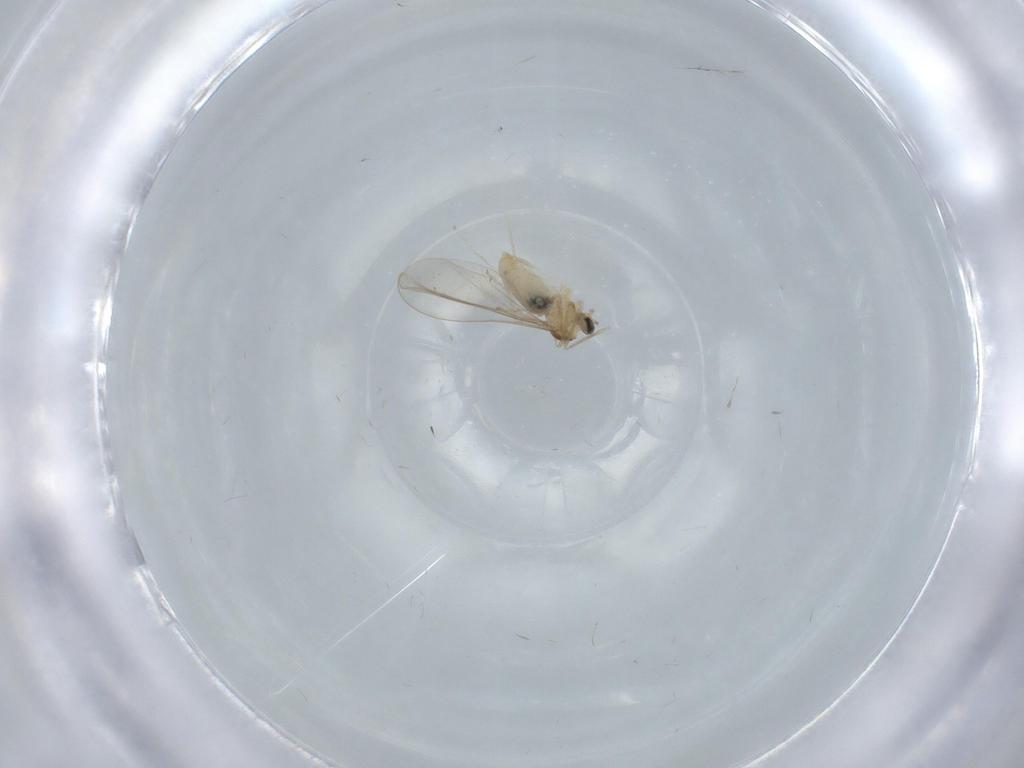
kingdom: Animalia
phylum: Arthropoda
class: Insecta
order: Diptera
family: Cecidomyiidae
